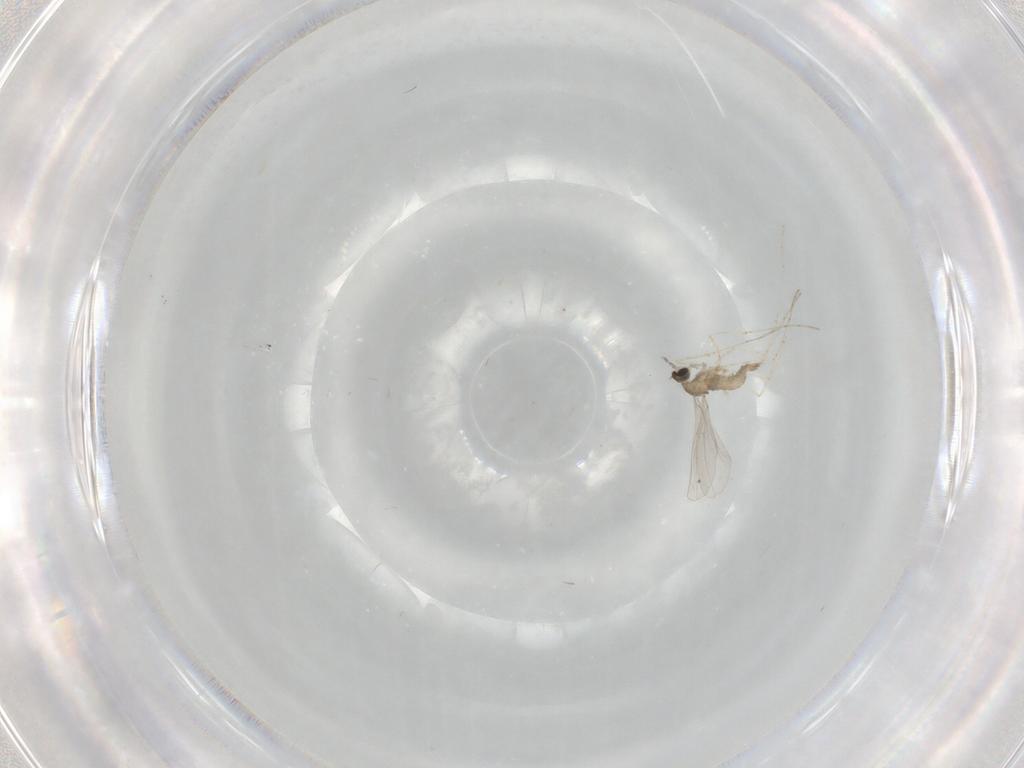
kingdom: Animalia
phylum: Arthropoda
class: Insecta
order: Diptera
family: Cecidomyiidae
